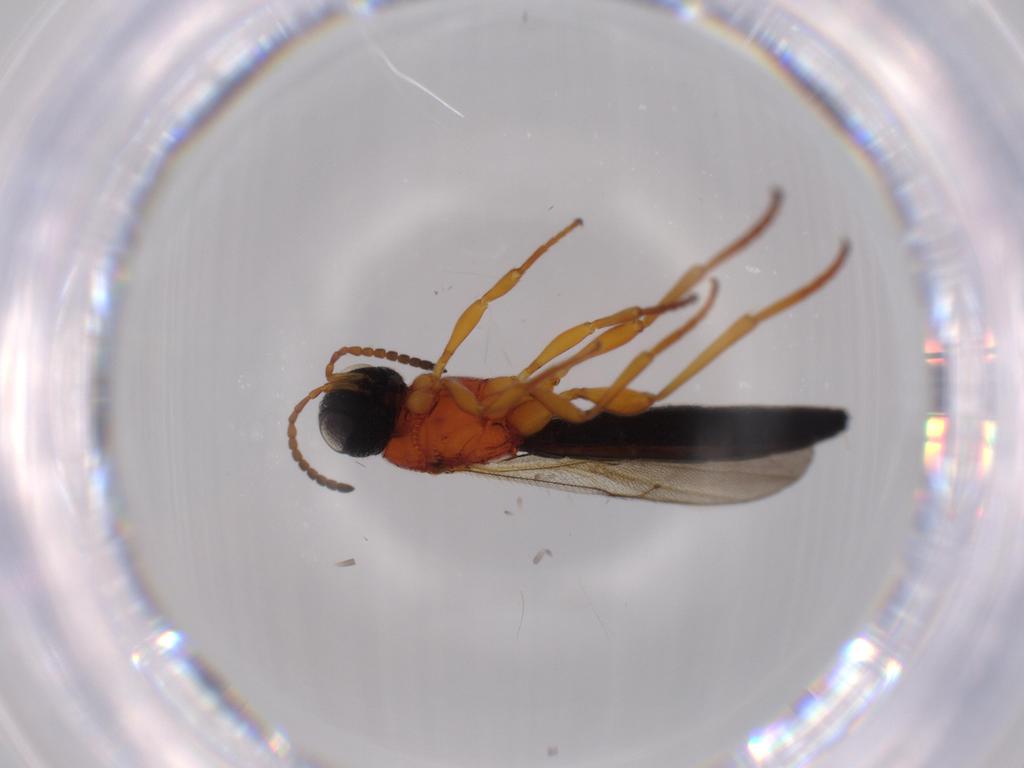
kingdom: Animalia
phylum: Arthropoda
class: Insecta
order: Hymenoptera
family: Scelionidae
